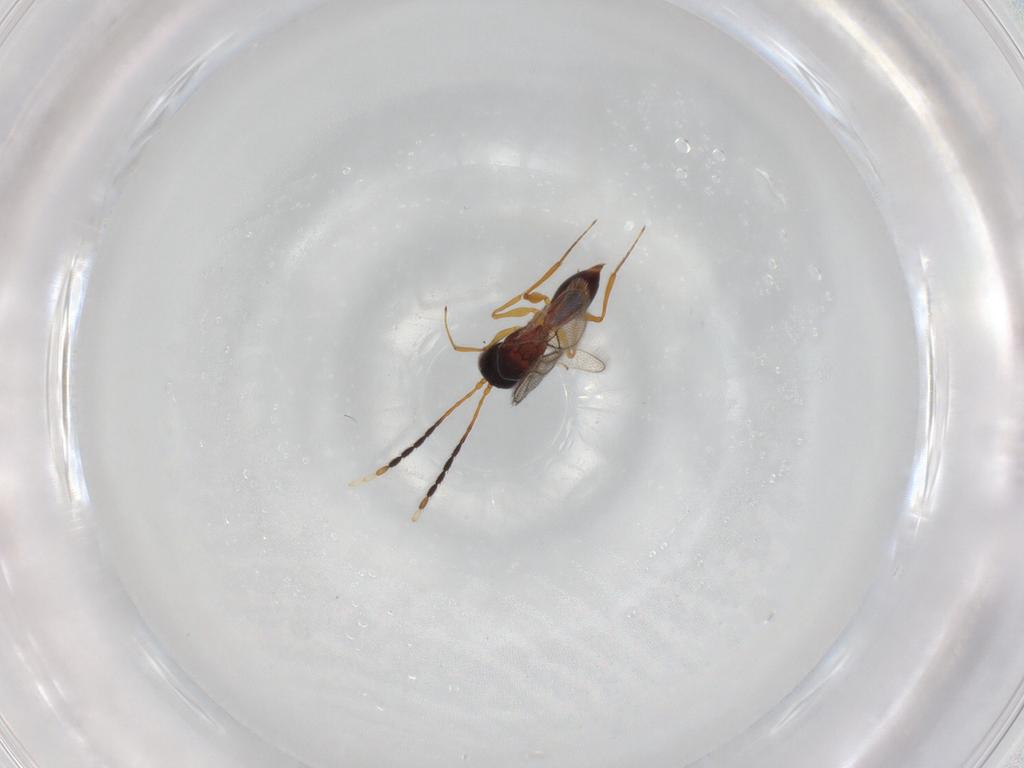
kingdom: Animalia
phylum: Arthropoda
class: Insecta
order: Hymenoptera
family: Figitidae
